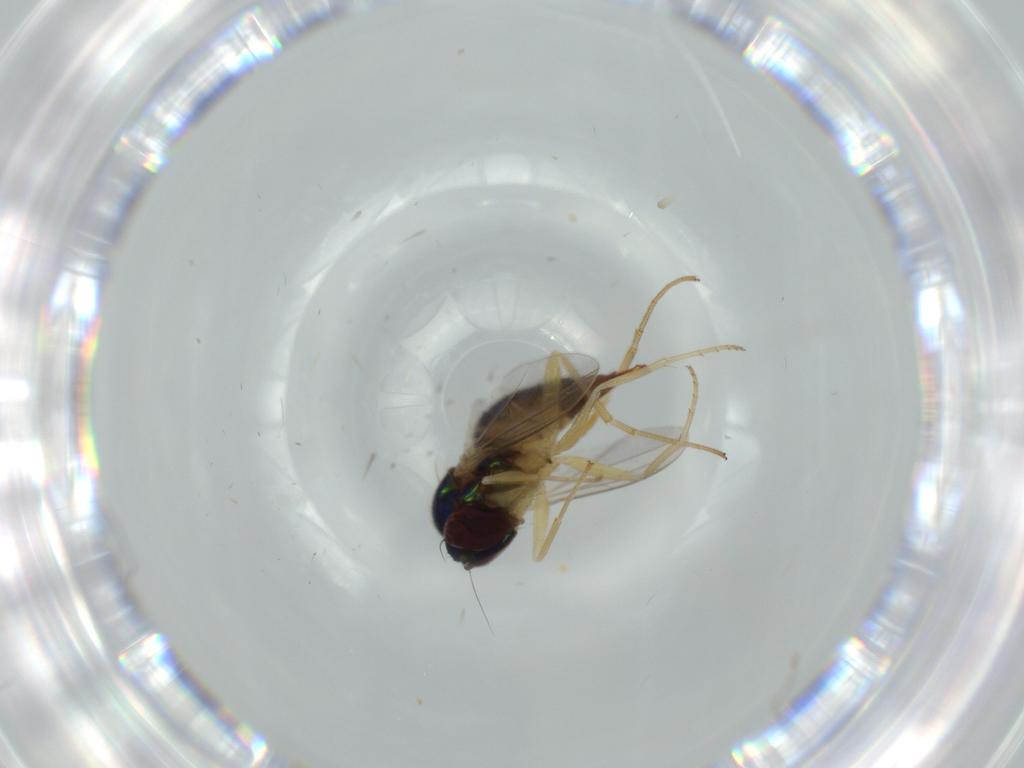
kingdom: Animalia
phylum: Arthropoda
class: Insecta
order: Diptera
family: Dolichopodidae
